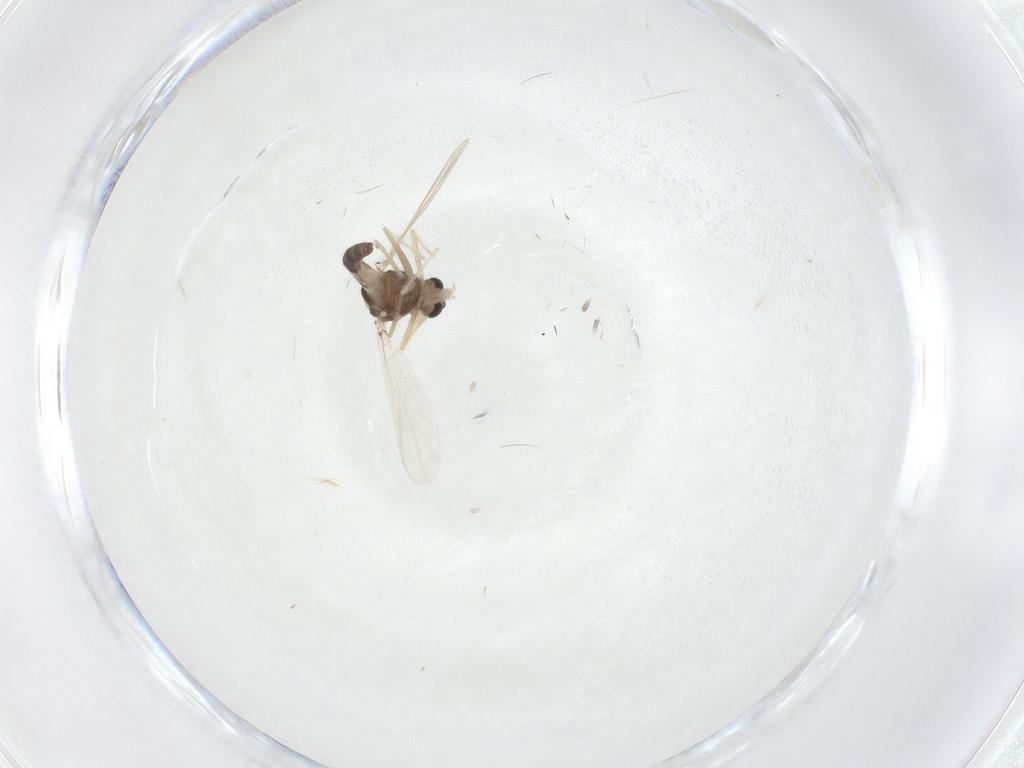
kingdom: Animalia
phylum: Arthropoda
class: Insecta
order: Diptera
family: Chironomidae
